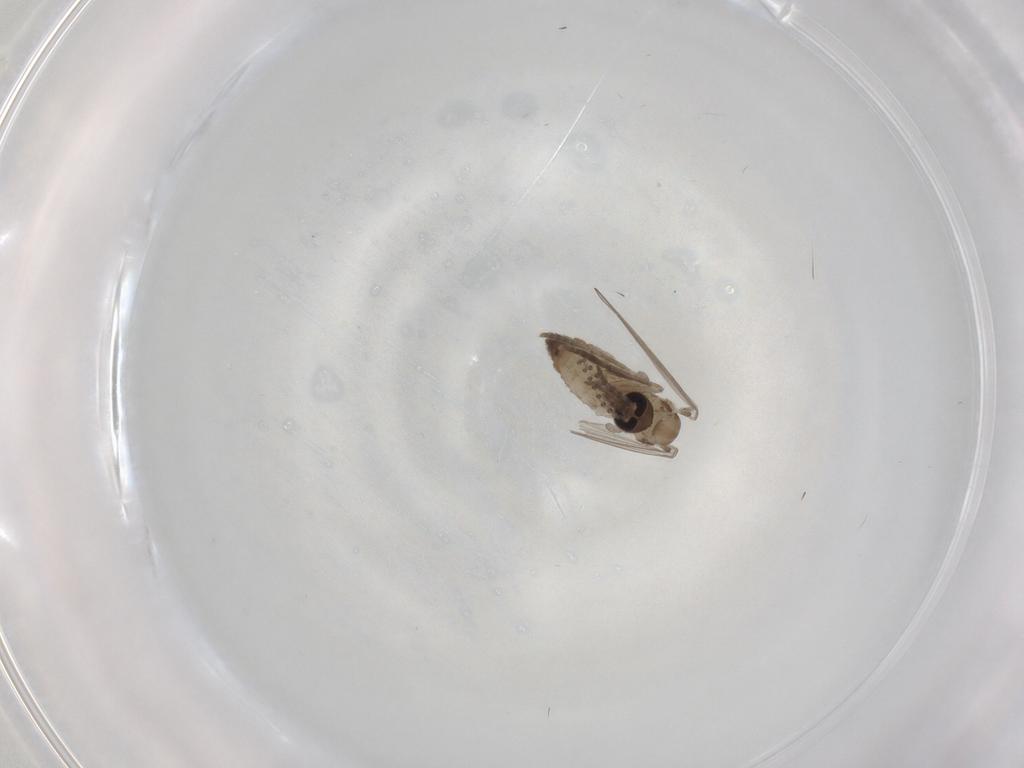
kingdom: Animalia
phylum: Arthropoda
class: Insecta
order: Diptera
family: Psychodidae
